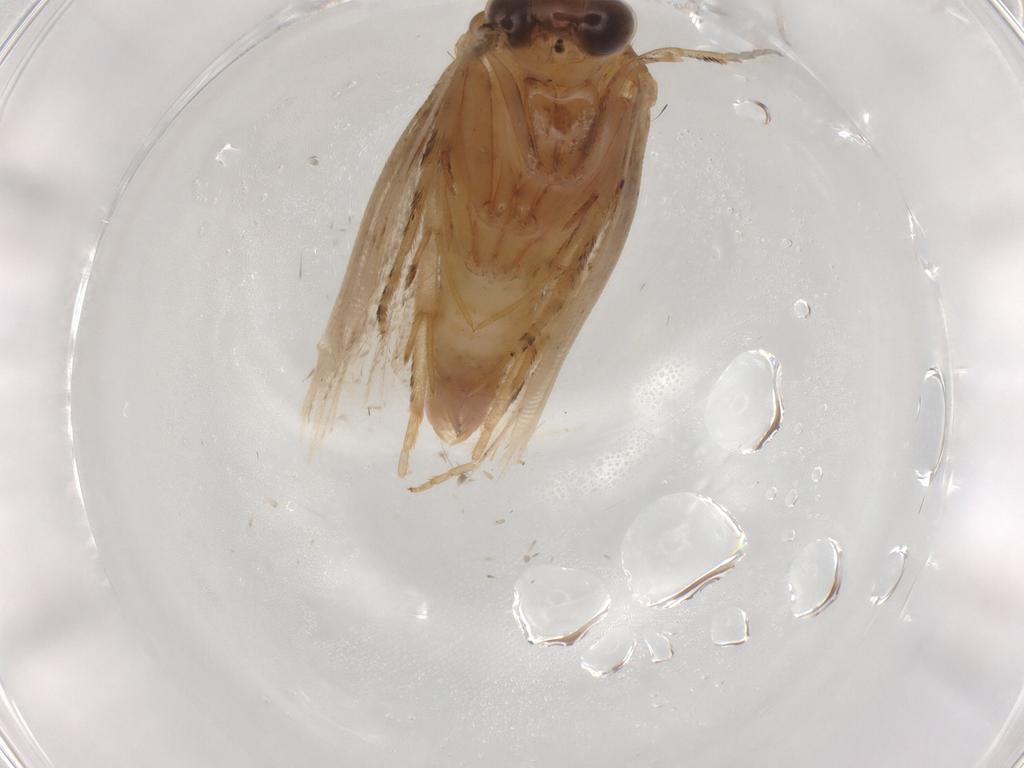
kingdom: Animalia
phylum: Arthropoda
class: Insecta
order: Lepidoptera
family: Tortricidae
